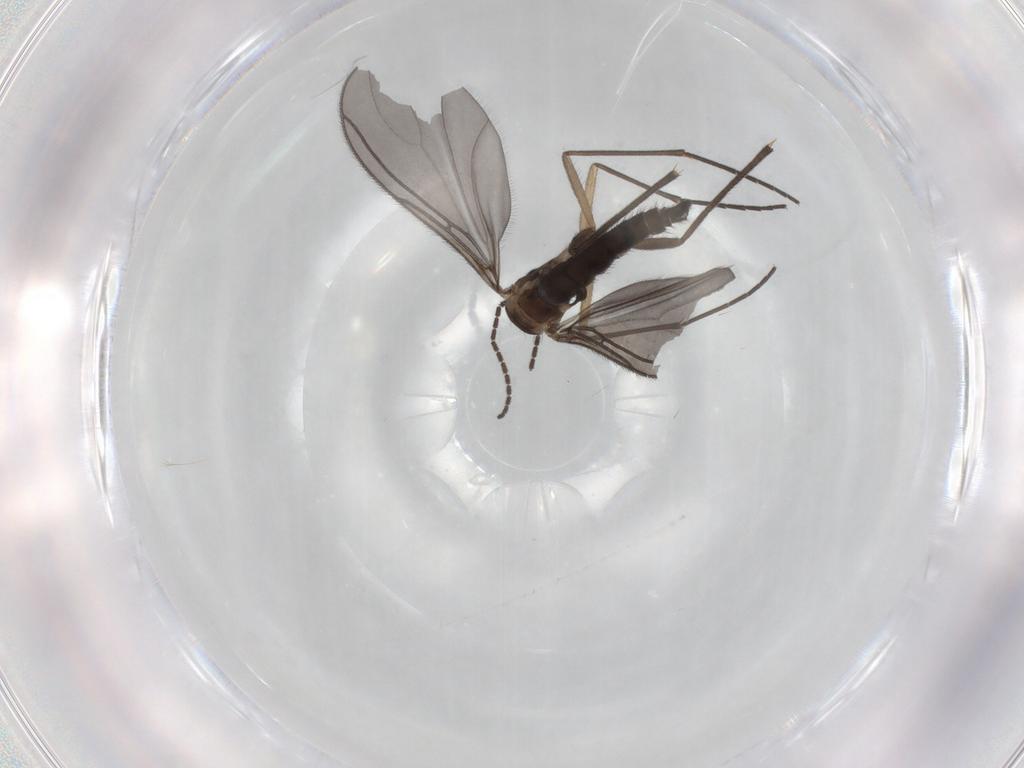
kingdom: Animalia
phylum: Arthropoda
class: Insecta
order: Diptera
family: Sciaridae
